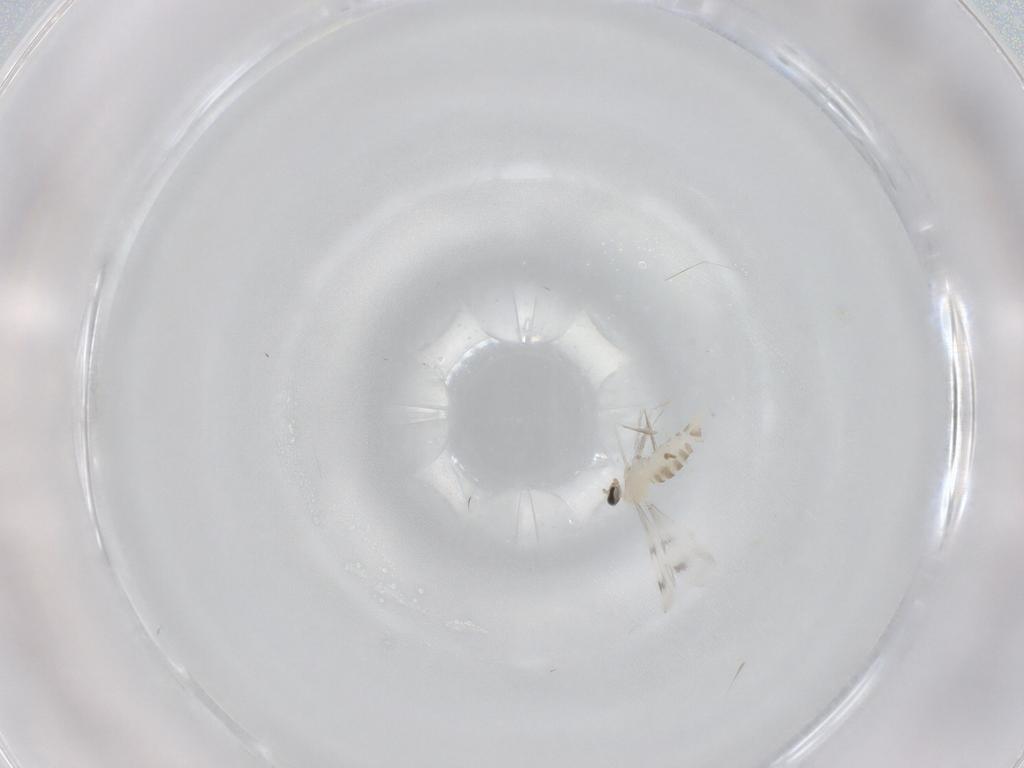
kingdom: Animalia
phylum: Arthropoda
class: Insecta
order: Diptera
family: Cecidomyiidae
